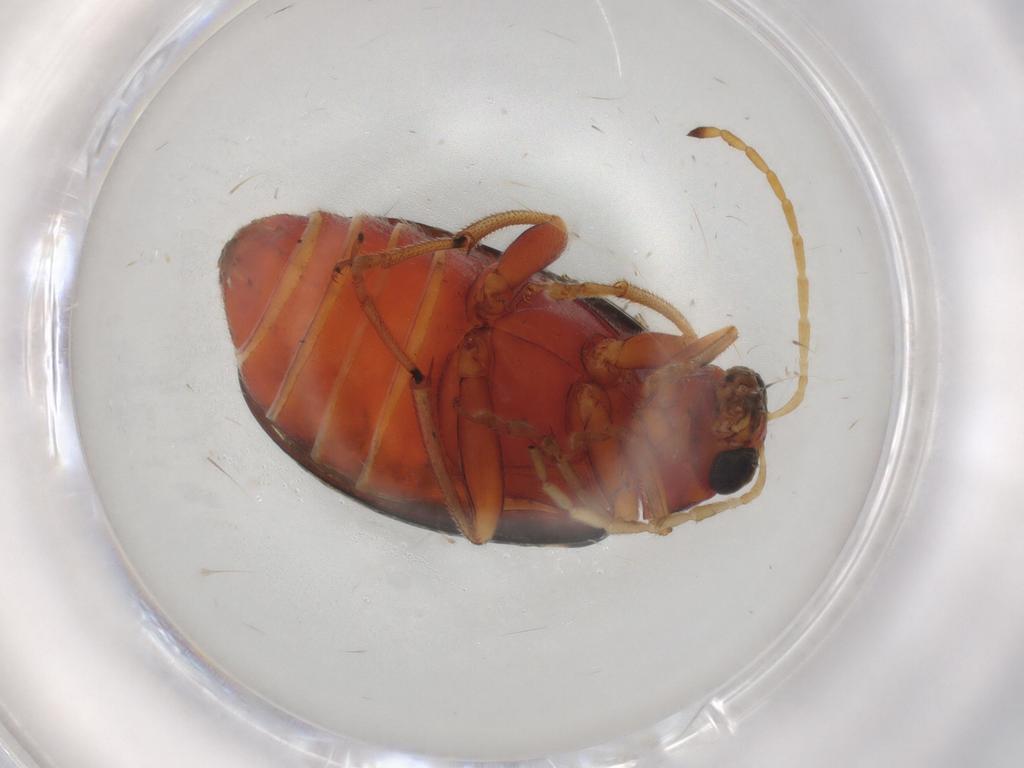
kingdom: Animalia
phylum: Arthropoda
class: Insecta
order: Coleoptera
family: Chrysomelidae
